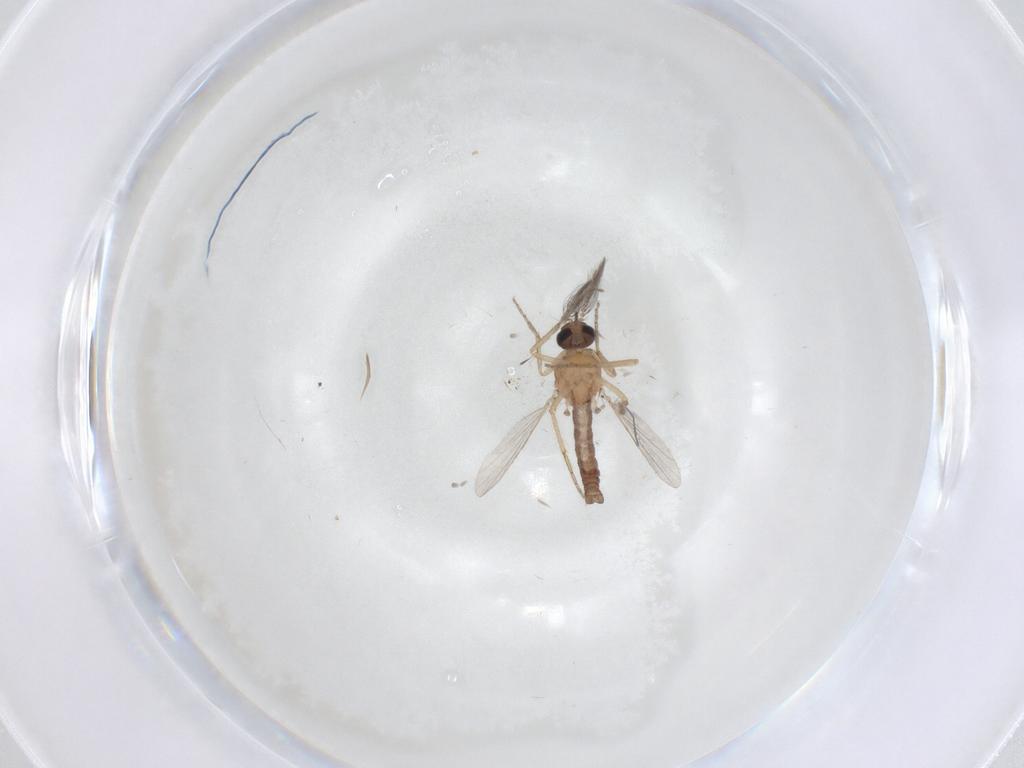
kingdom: Animalia
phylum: Arthropoda
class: Insecta
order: Diptera
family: Ceratopogonidae
